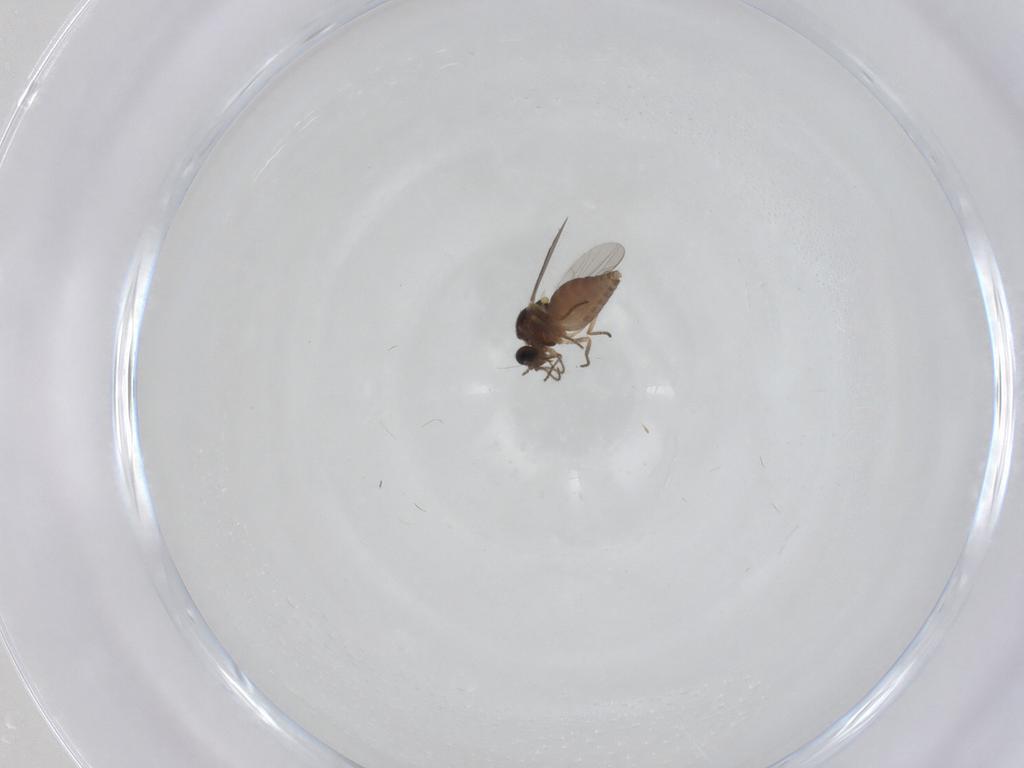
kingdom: Animalia
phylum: Arthropoda
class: Insecta
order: Diptera
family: Ceratopogonidae
